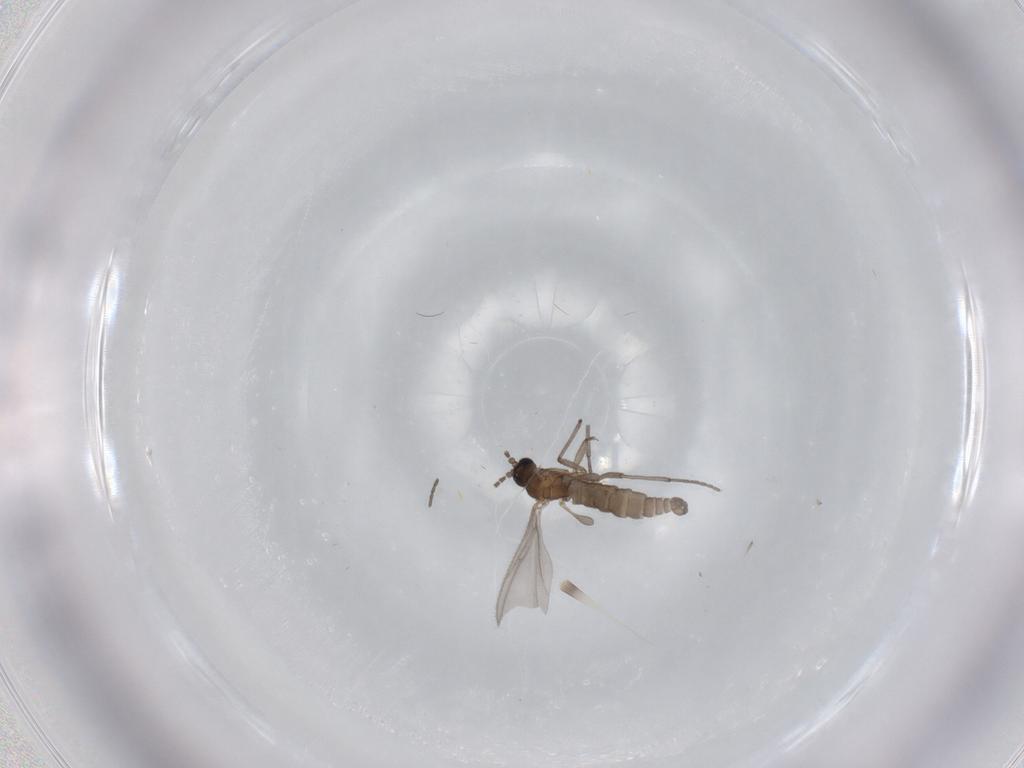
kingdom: Animalia
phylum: Arthropoda
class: Insecta
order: Diptera
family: Sciaridae
